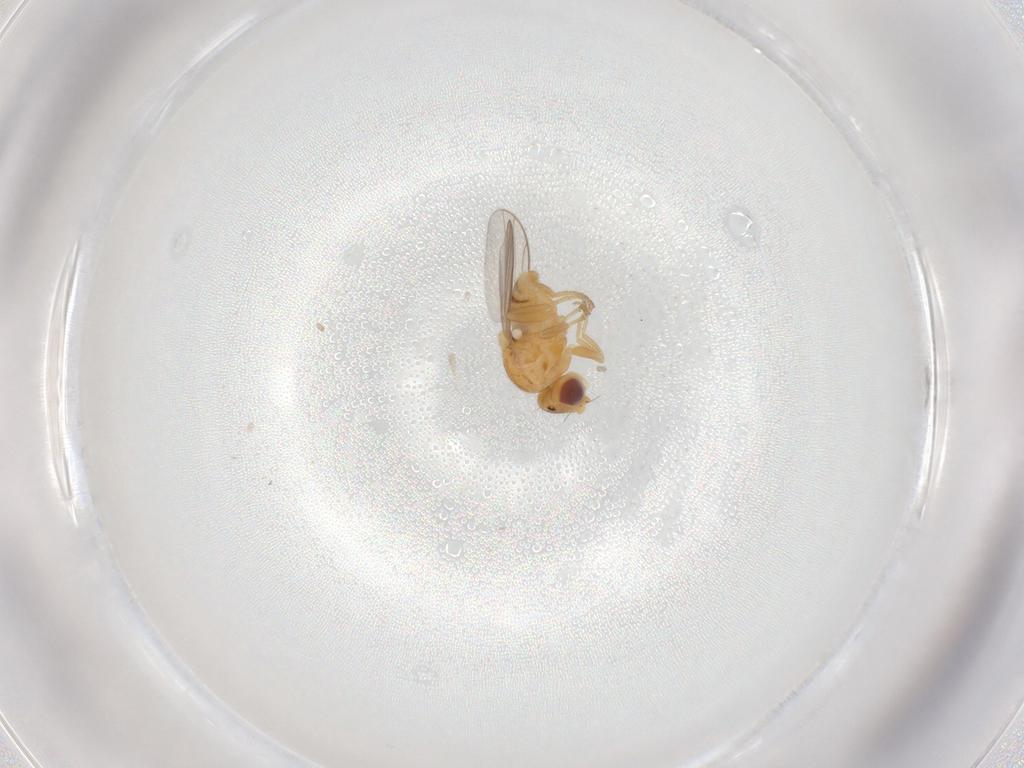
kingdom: Animalia
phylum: Arthropoda
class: Insecta
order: Diptera
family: Chloropidae
